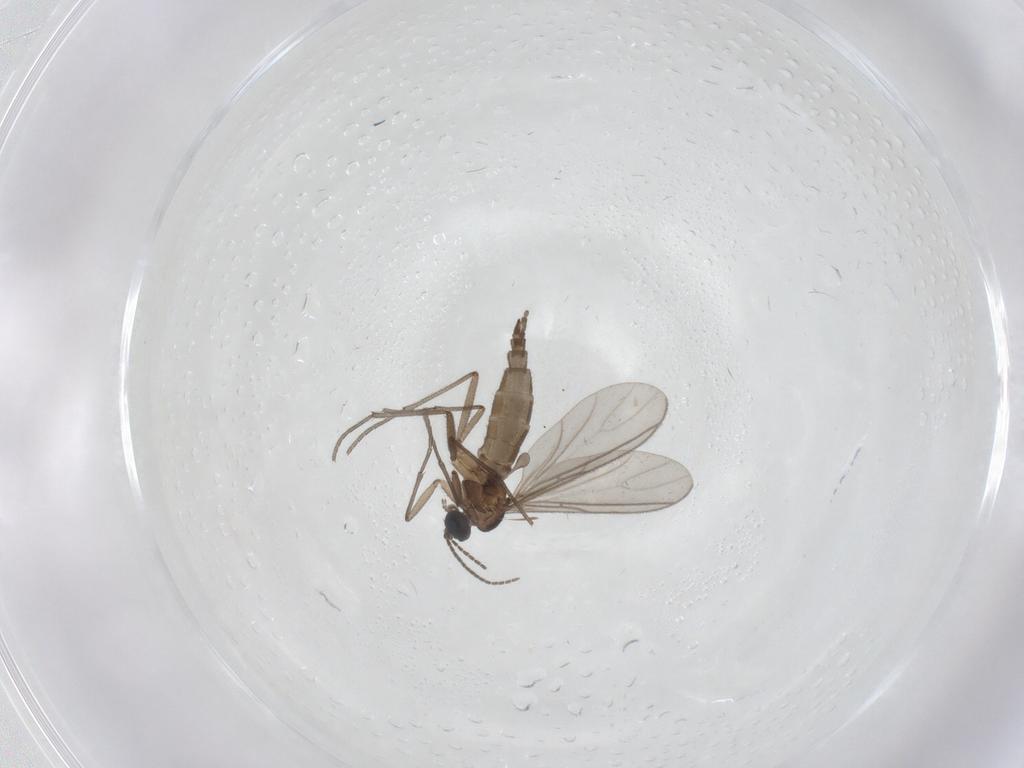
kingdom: Animalia
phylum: Arthropoda
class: Insecta
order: Diptera
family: Sciaridae
